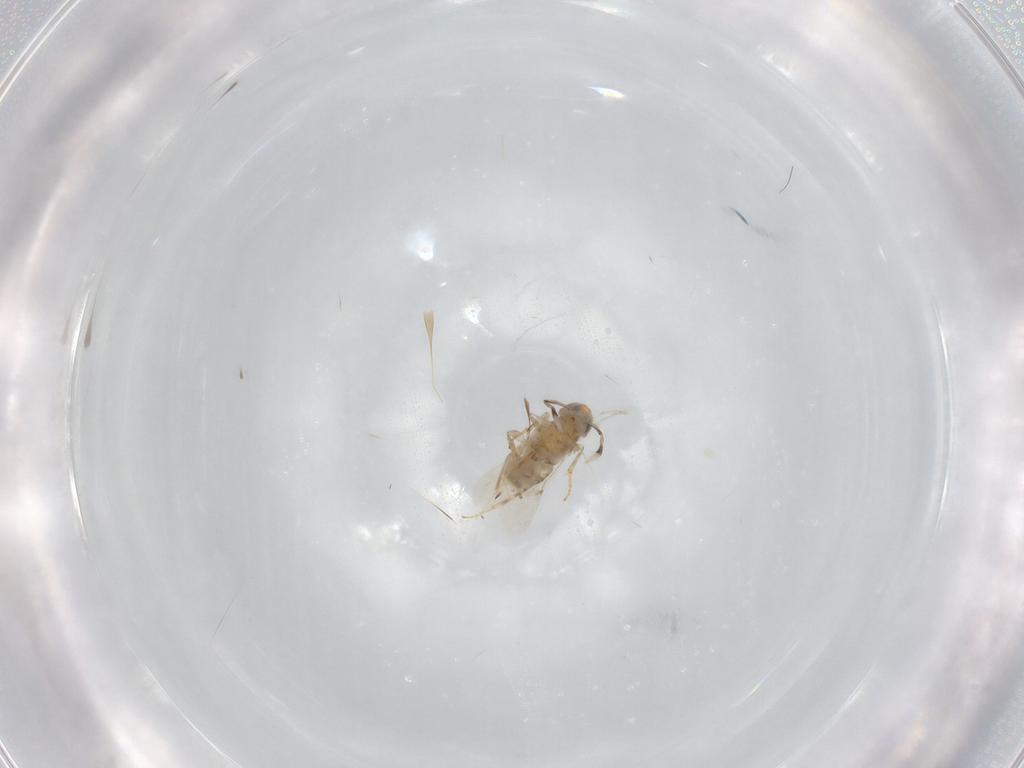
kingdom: Animalia
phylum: Arthropoda
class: Insecta
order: Hymenoptera
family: Encyrtidae
